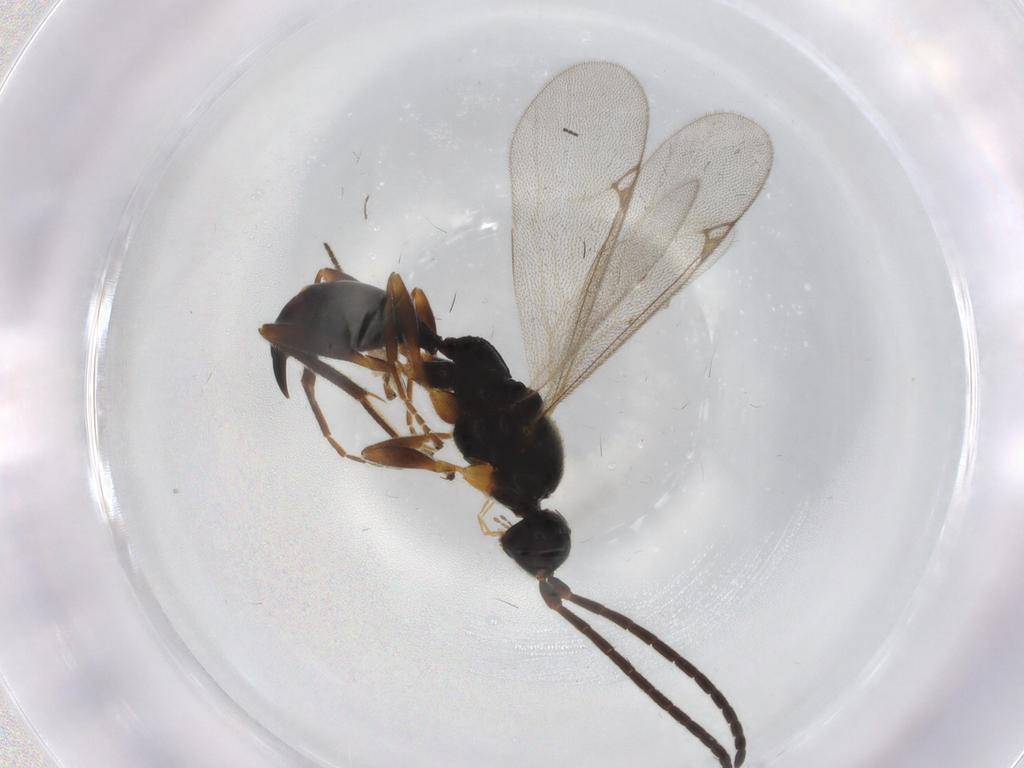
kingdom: Animalia
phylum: Arthropoda
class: Insecta
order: Hymenoptera
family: Proctotrupidae
